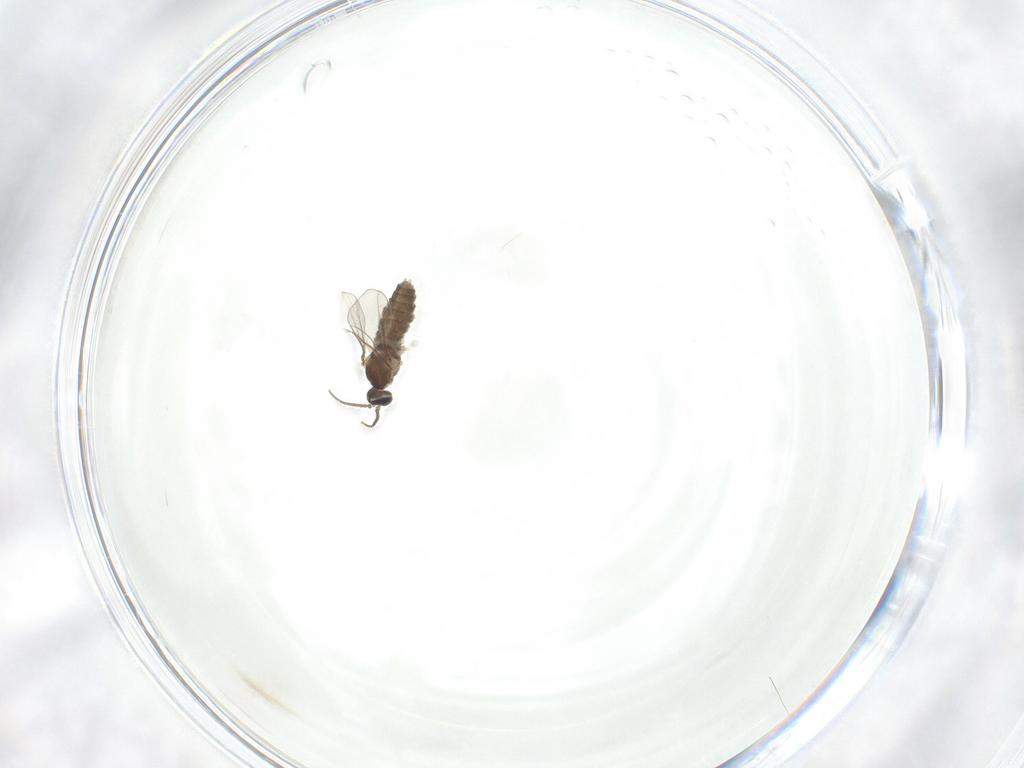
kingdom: Animalia
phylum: Arthropoda
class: Insecta
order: Diptera
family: Cecidomyiidae
